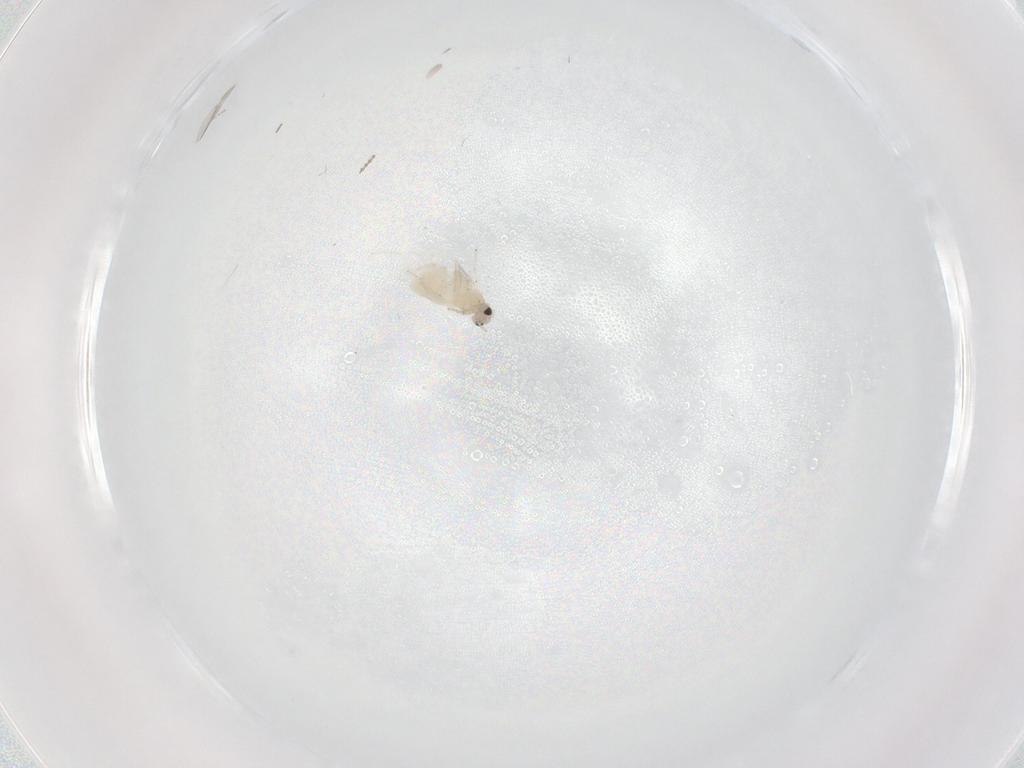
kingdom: Animalia
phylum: Arthropoda
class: Insecta
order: Diptera
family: Cecidomyiidae
